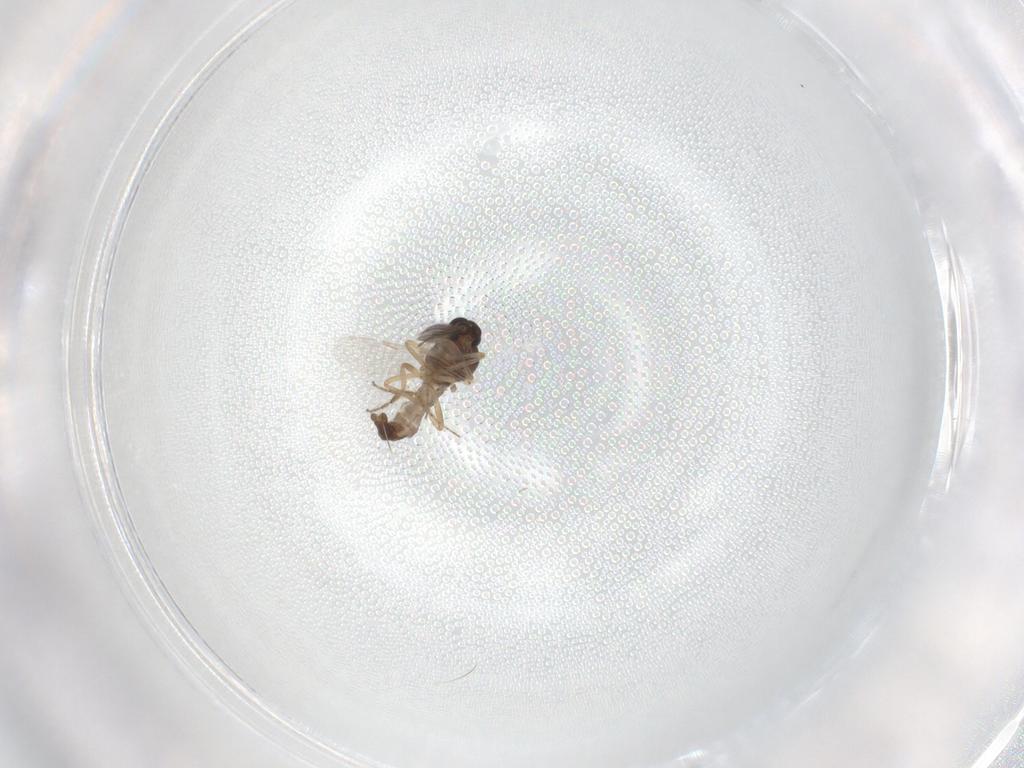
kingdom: Animalia
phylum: Arthropoda
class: Insecta
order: Diptera
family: Ceratopogonidae
